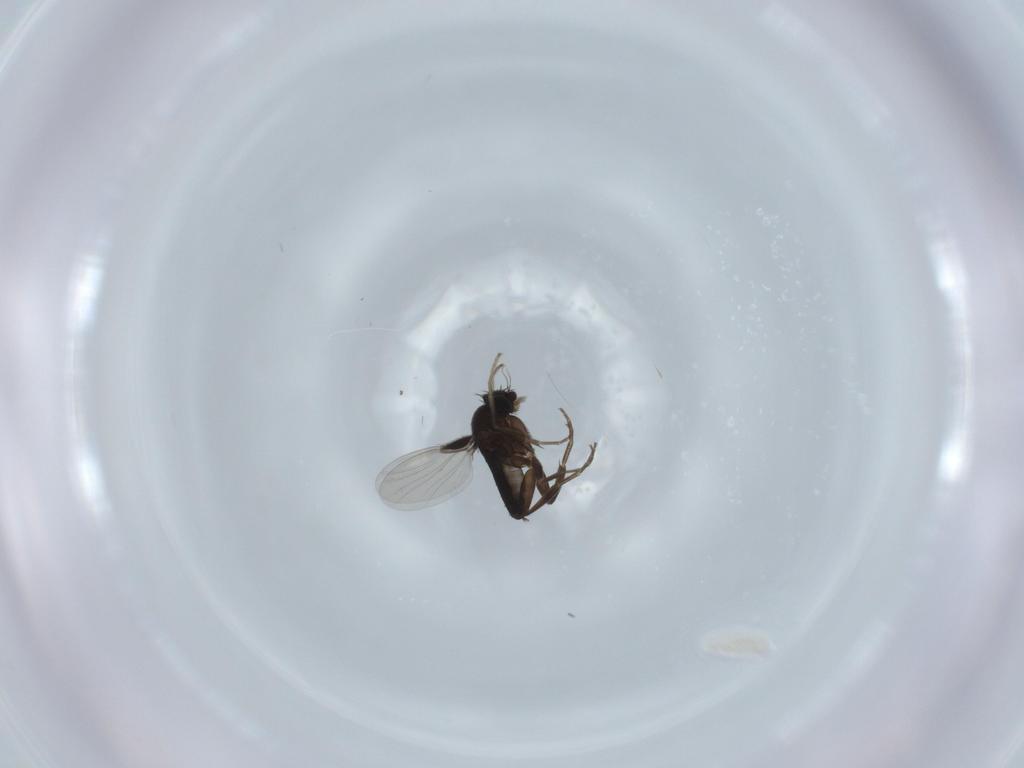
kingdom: Animalia
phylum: Arthropoda
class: Insecta
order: Diptera
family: Phoridae
